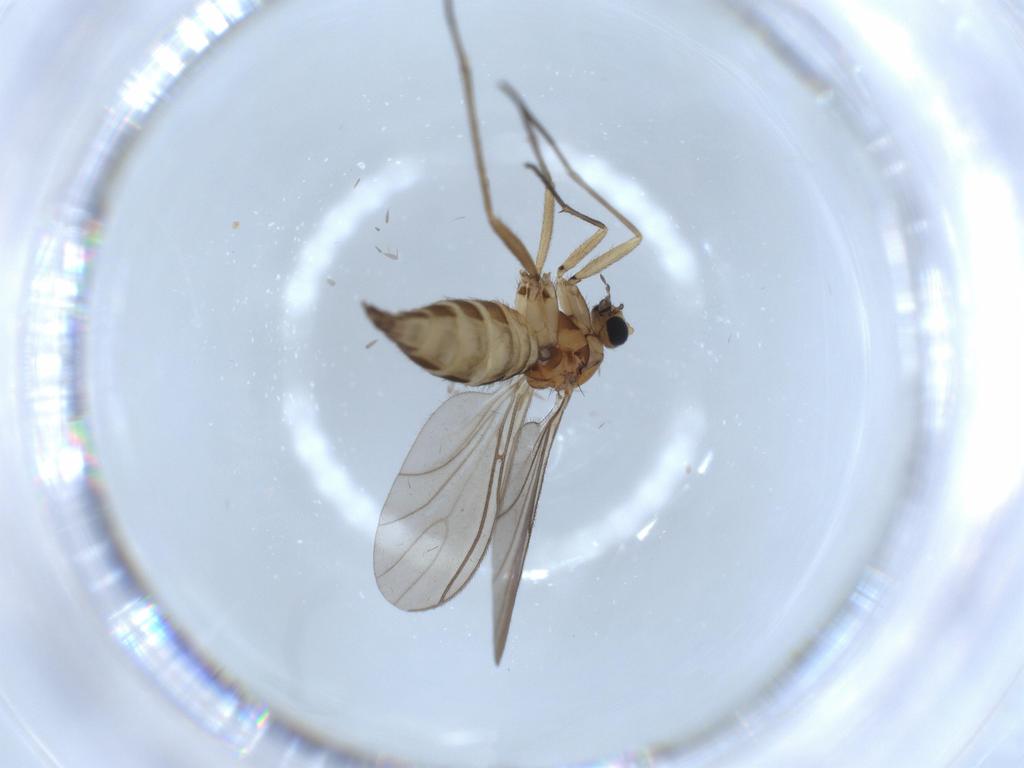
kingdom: Animalia
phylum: Arthropoda
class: Insecta
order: Diptera
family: Sciaridae
